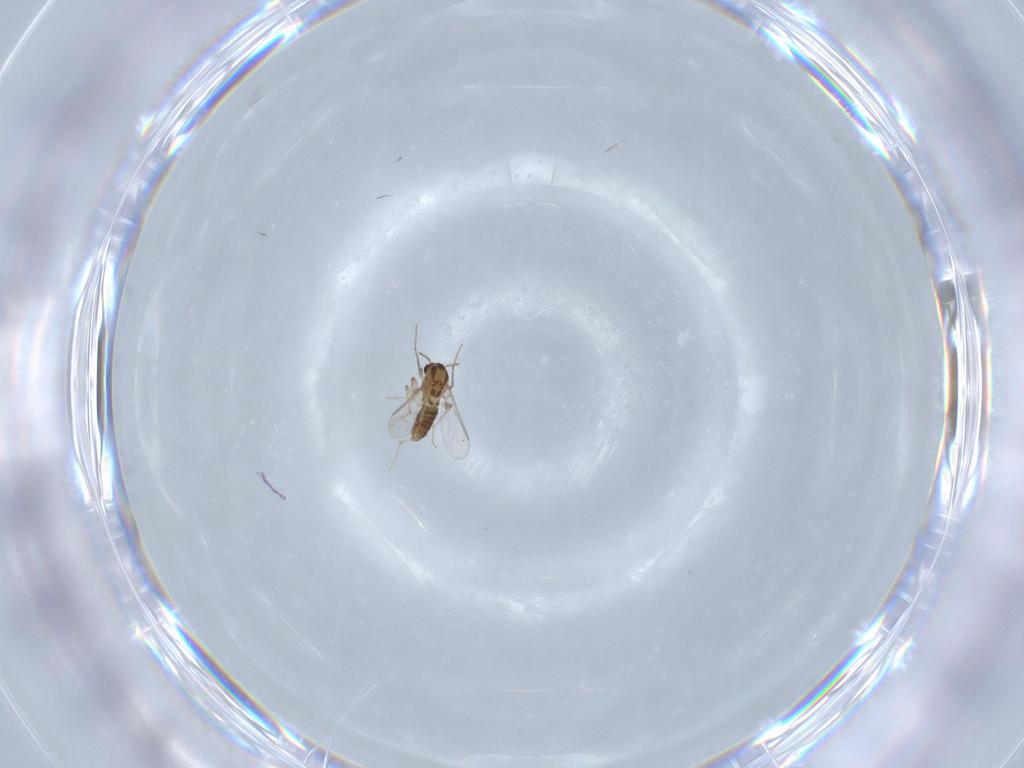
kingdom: Animalia
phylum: Arthropoda
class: Insecta
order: Diptera
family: Chironomidae
